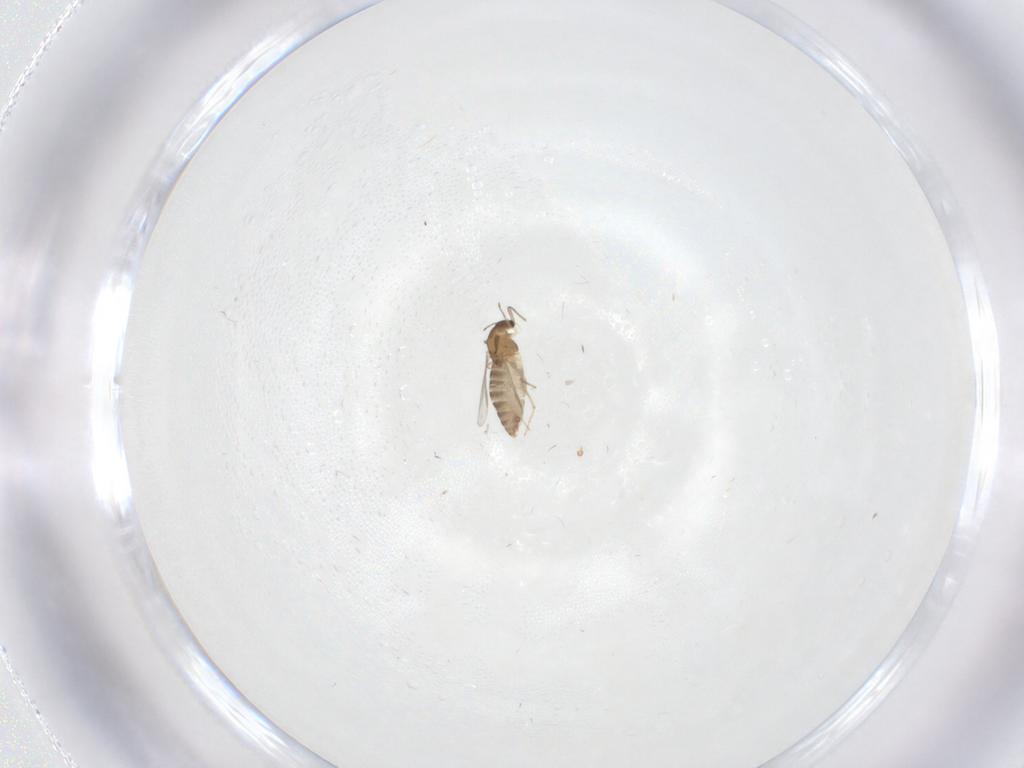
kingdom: Animalia
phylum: Arthropoda
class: Insecta
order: Diptera
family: Chironomidae
